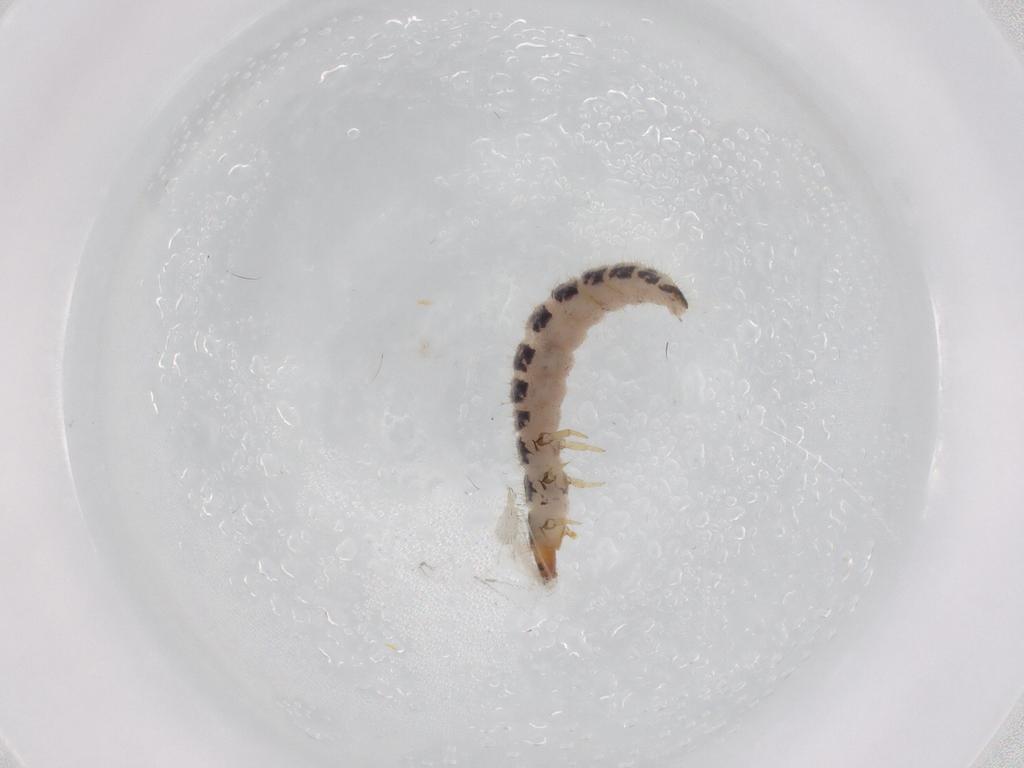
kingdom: Animalia
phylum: Arthropoda
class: Insecta
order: Coleoptera
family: Cleridae
